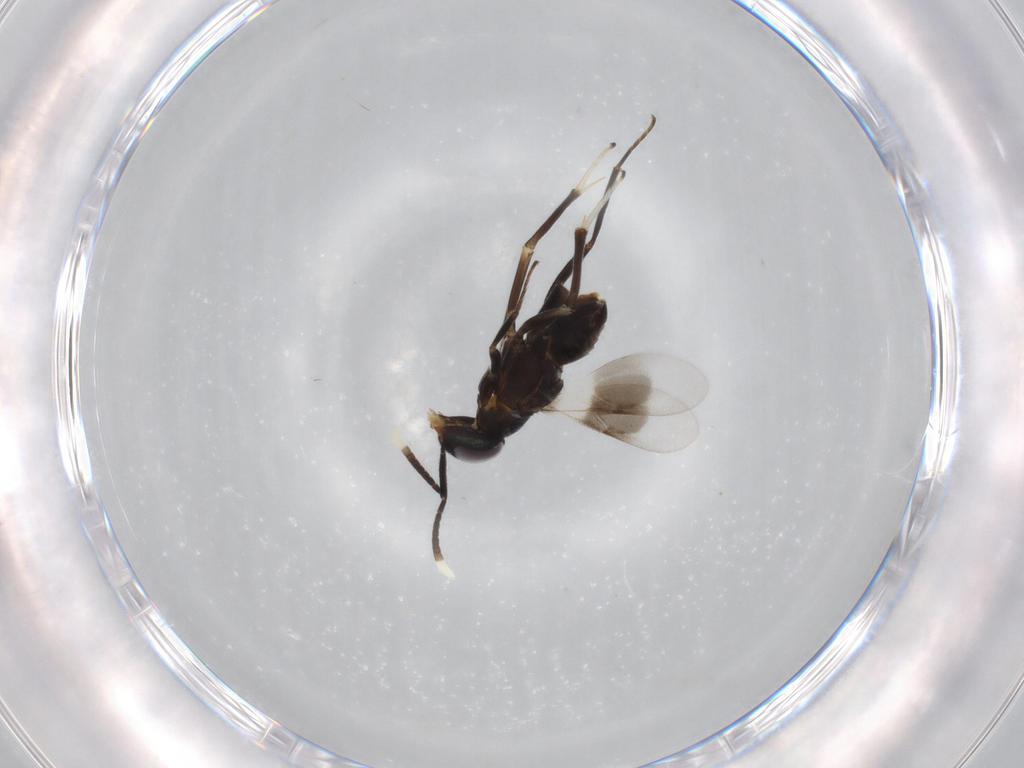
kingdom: Animalia
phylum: Arthropoda
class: Insecta
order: Hymenoptera
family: Encyrtidae
